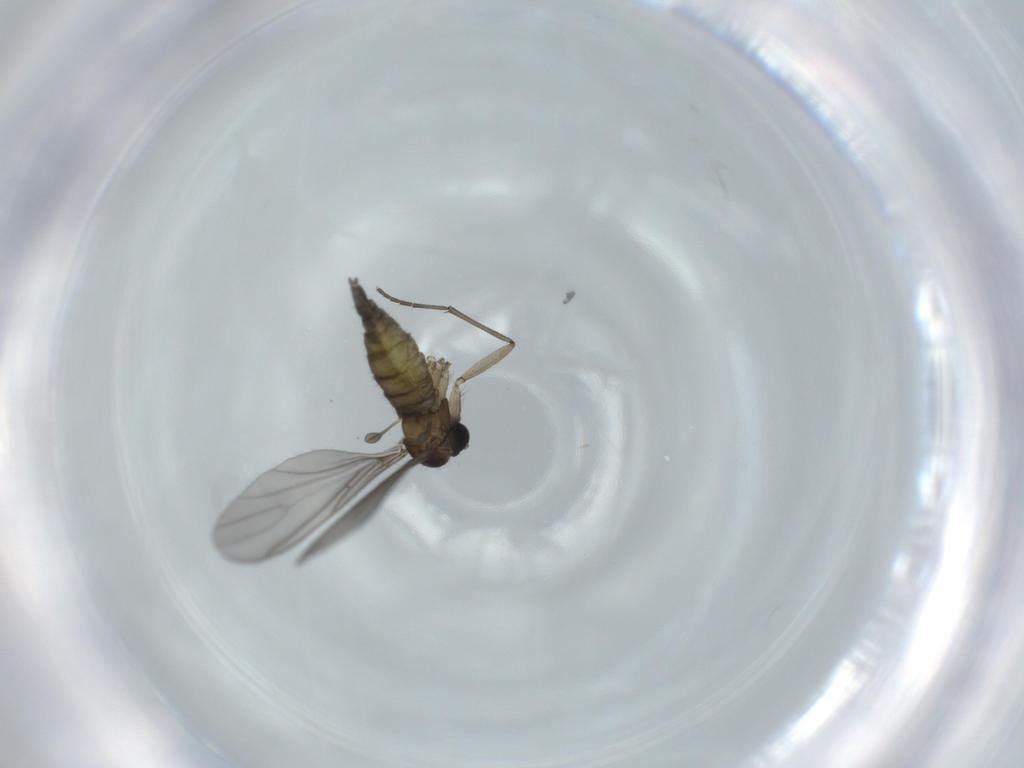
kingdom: Animalia
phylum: Arthropoda
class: Insecta
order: Diptera
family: Sciaridae
